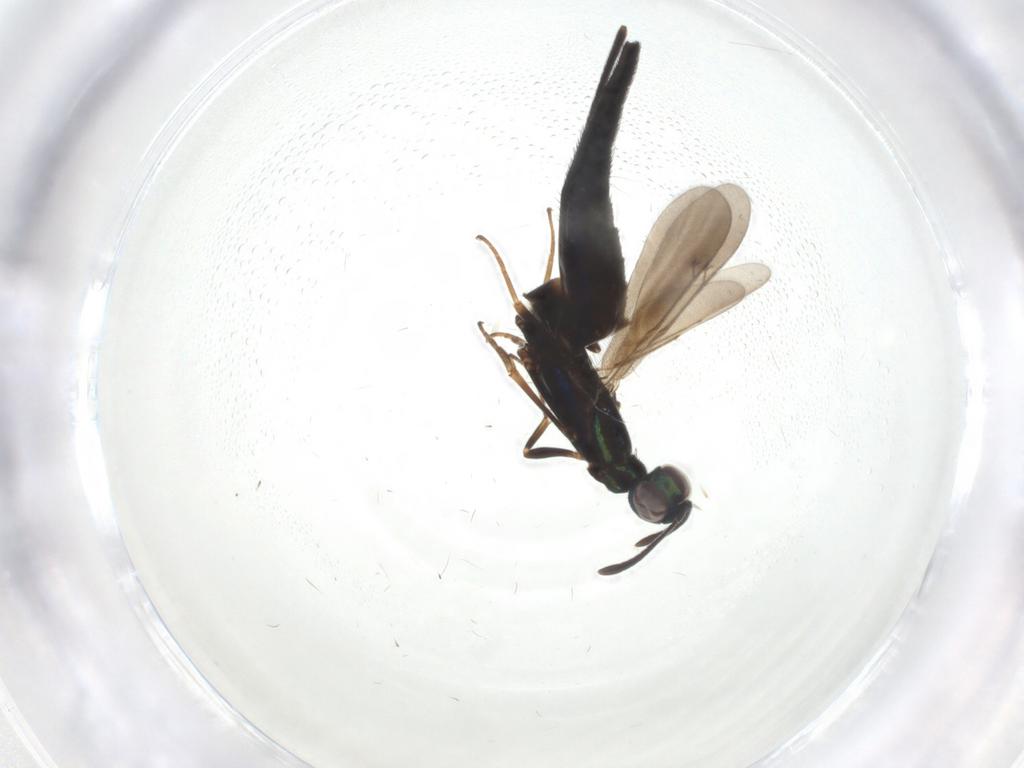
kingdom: Animalia
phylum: Arthropoda
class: Insecta
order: Hymenoptera
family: Eupelmidae
